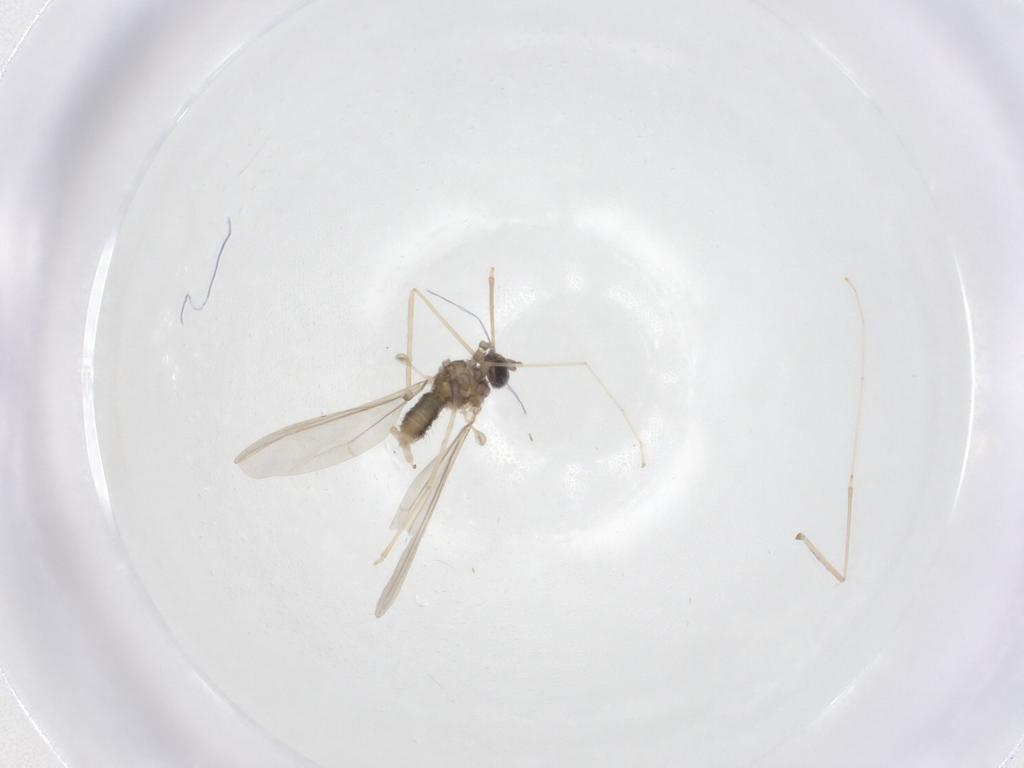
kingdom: Animalia
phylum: Arthropoda
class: Insecta
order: Diptera
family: Cecidomyiidae
